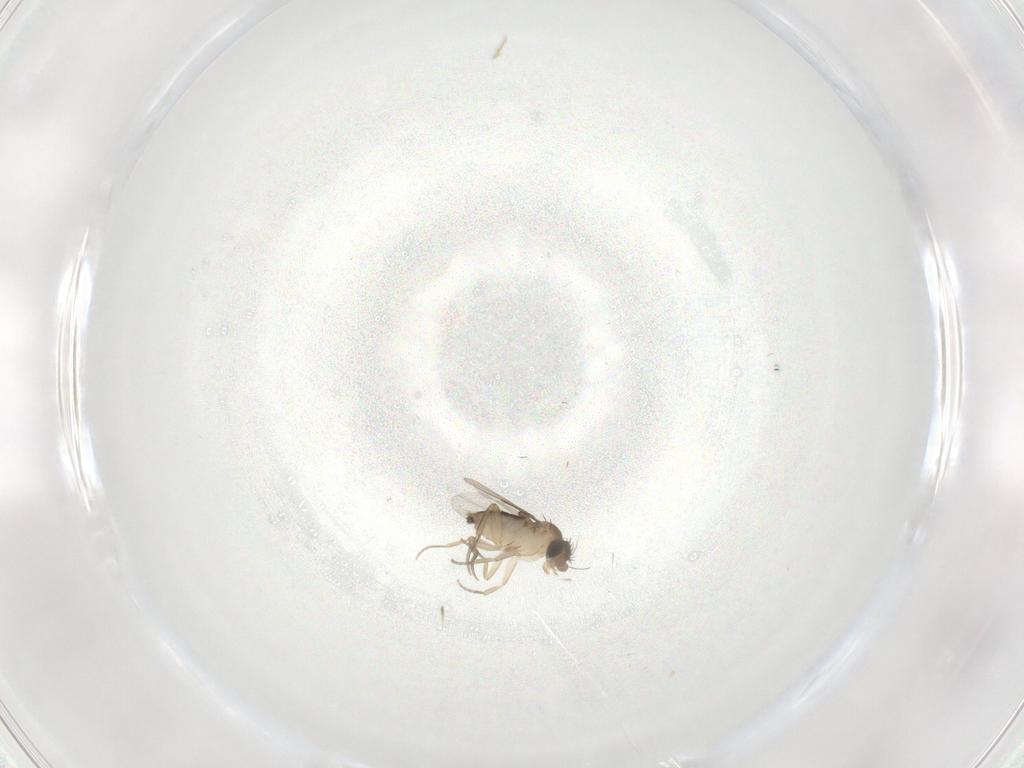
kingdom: Animalia
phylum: Arthropoda
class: Insecta
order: Diptera
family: Phoridae
